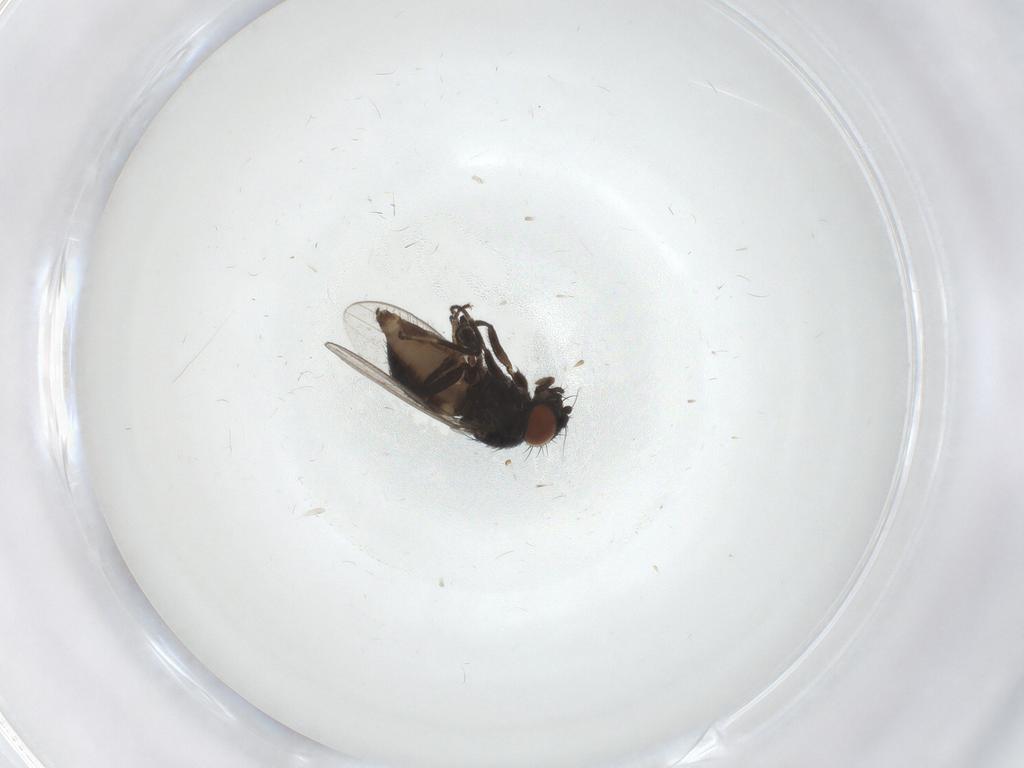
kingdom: Animalia
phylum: Arthropoda
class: Insecta
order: Diptera
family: Milichiidae
